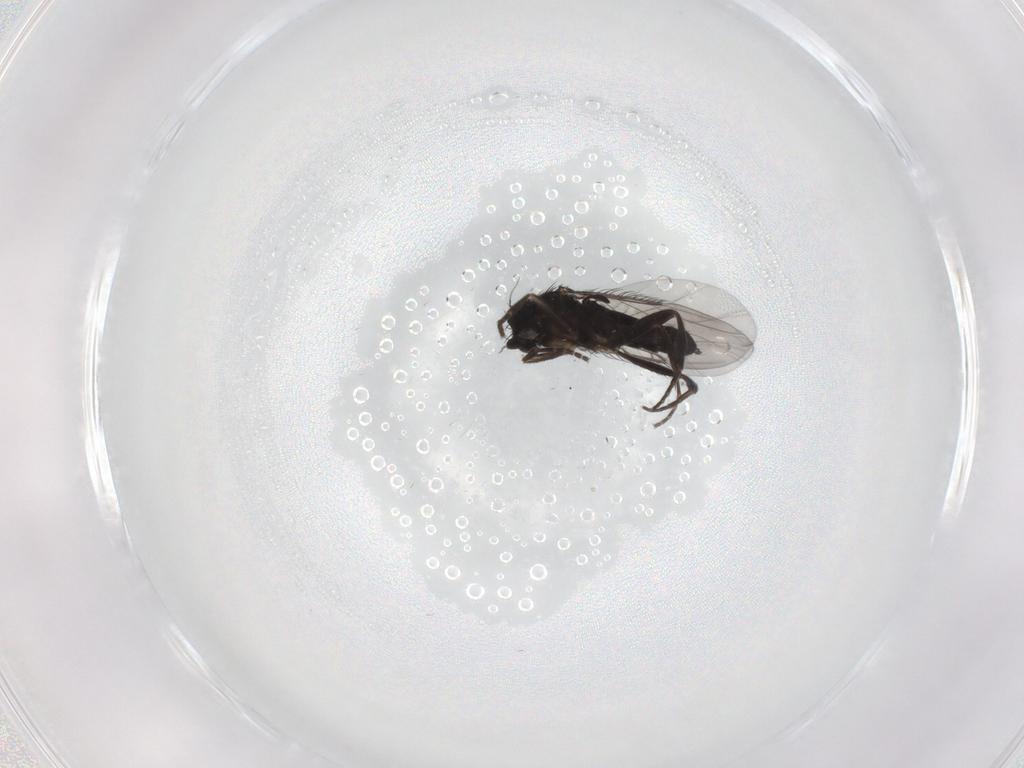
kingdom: Animalia
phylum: Arthropoda
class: Insecta
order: Diptera
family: Phoridae
